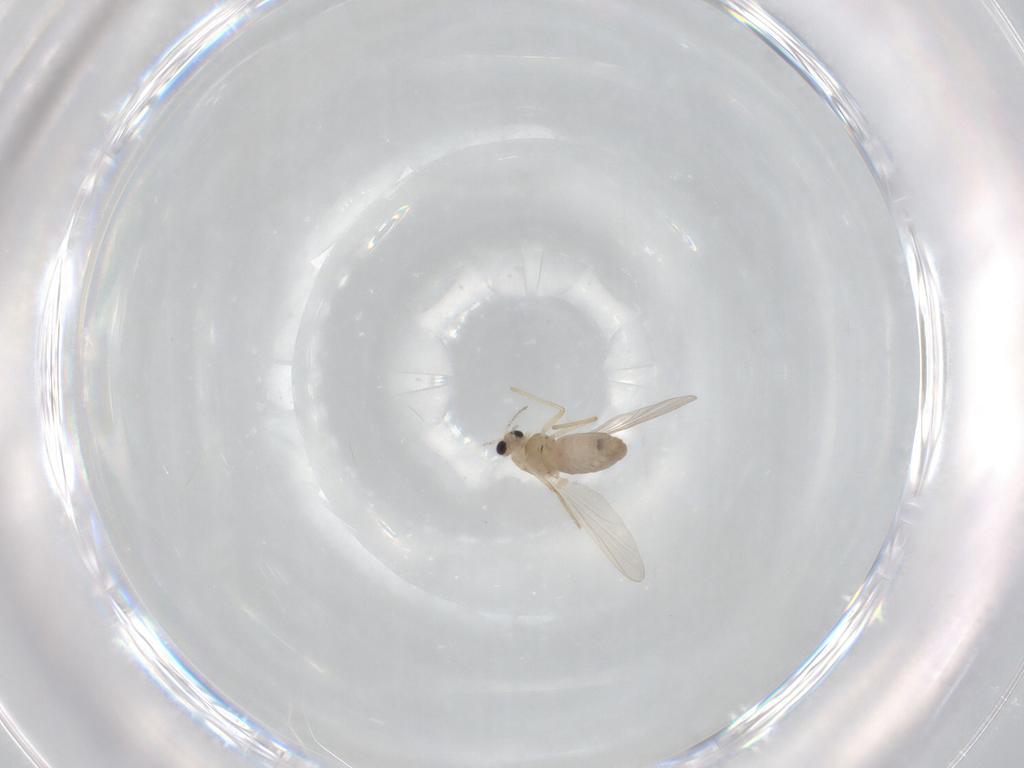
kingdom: Animalia
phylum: Arthropoda
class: Insecta
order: Diptera
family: Chironomidae
